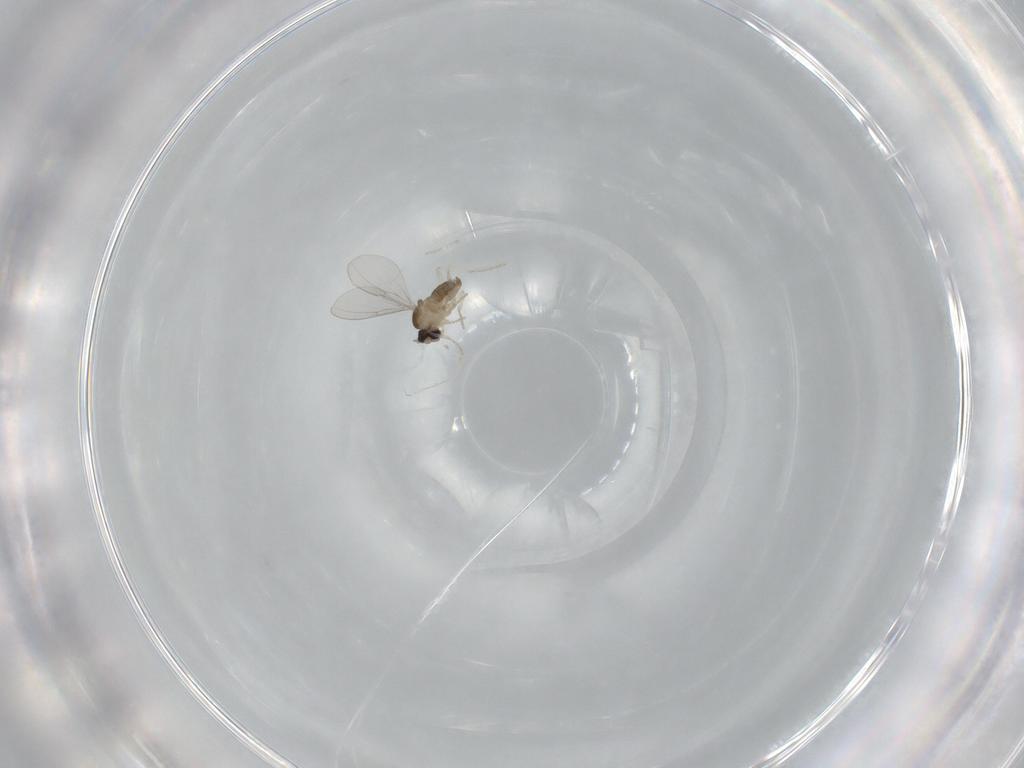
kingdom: Animalia
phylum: Arthropoda
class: Insecta
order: Diptera
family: Cecidomyiidae
